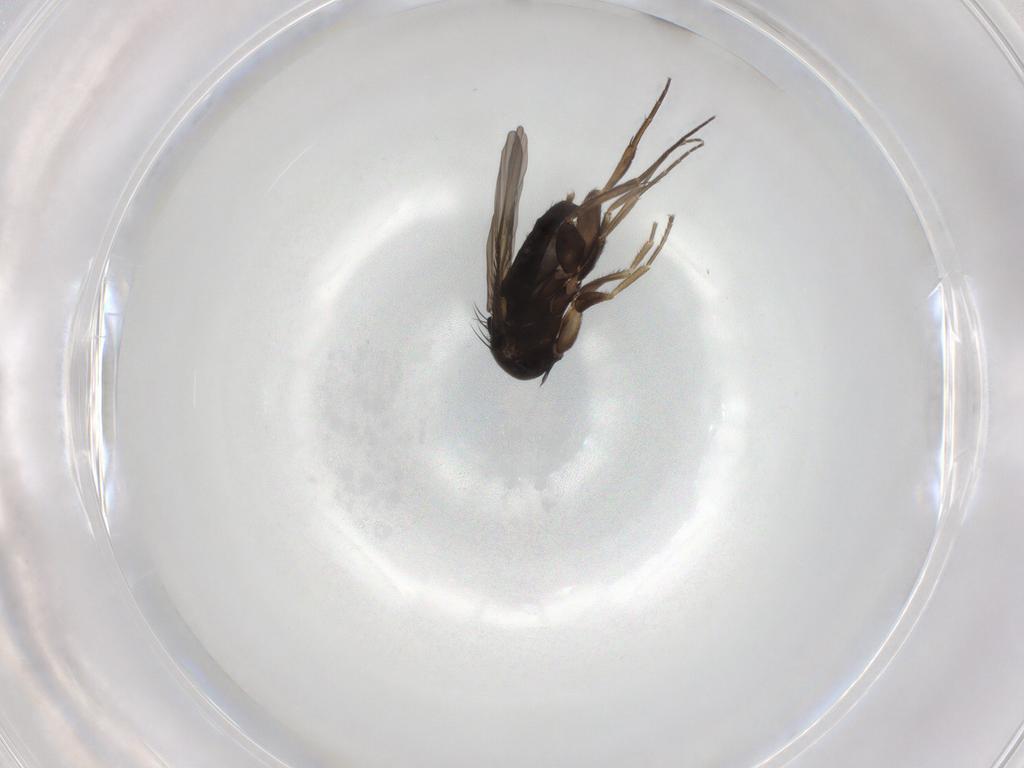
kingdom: Animalia
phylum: Arthropoda
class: Insecta
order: Diptera
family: Phoridae
